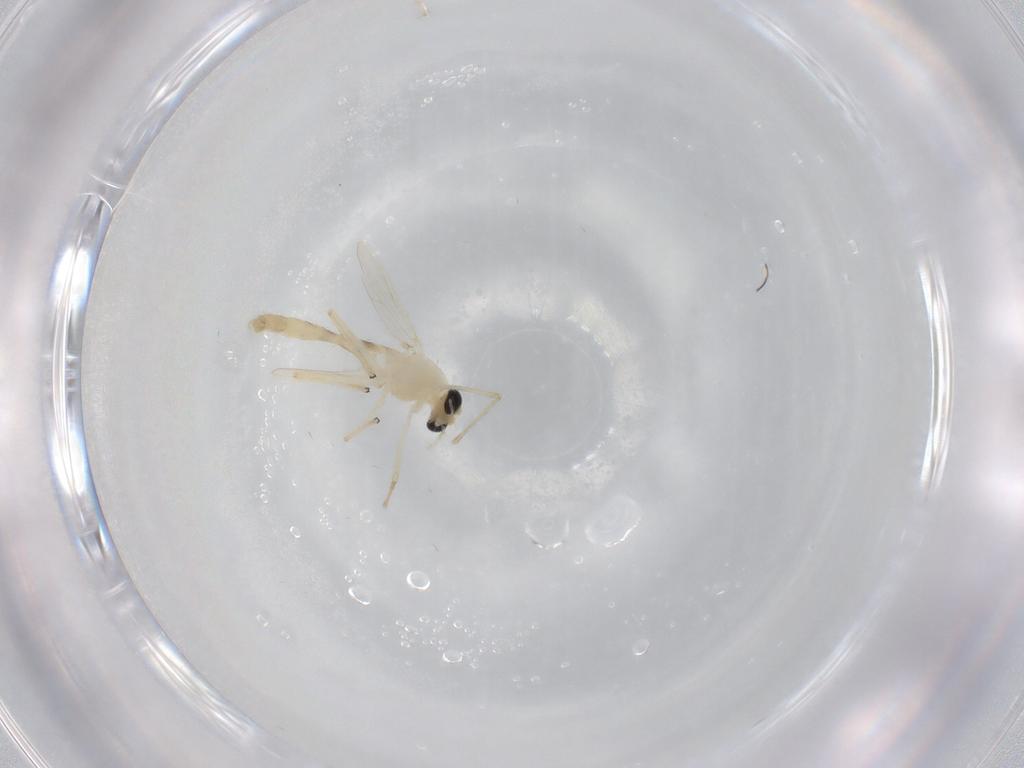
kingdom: Animalia
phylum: Arthropoda
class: Insecta
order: Diptera
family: Chironomidae
